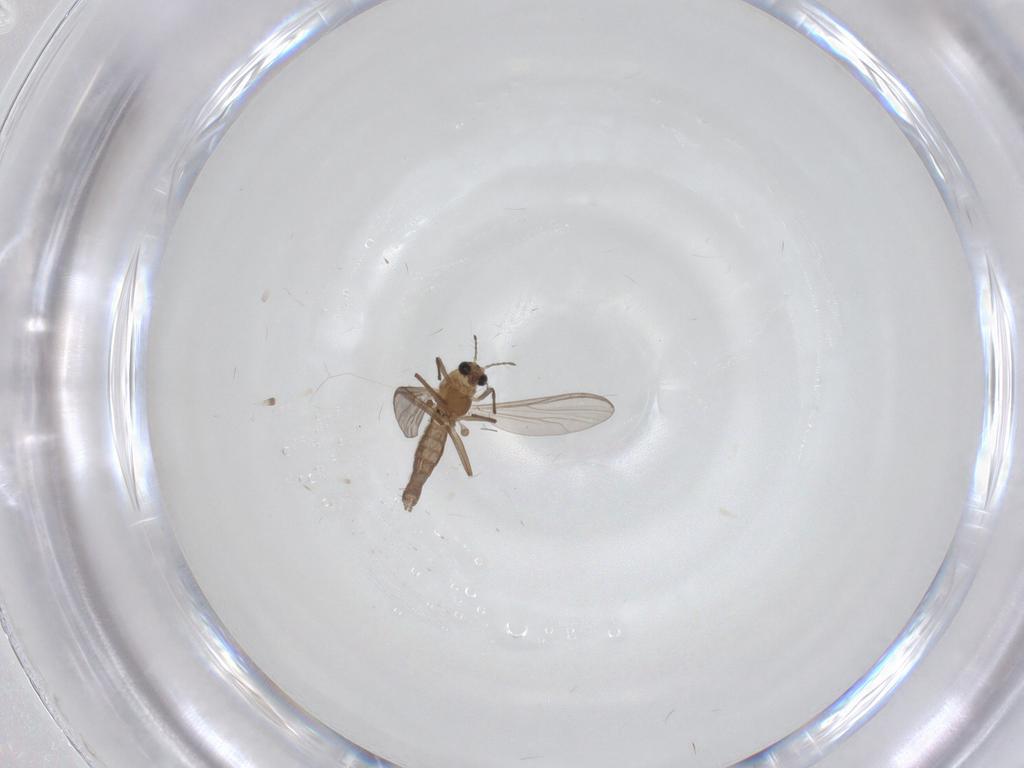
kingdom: Animalia
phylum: Arthropoda
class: Insecta
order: Diptera
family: Chironomidae
